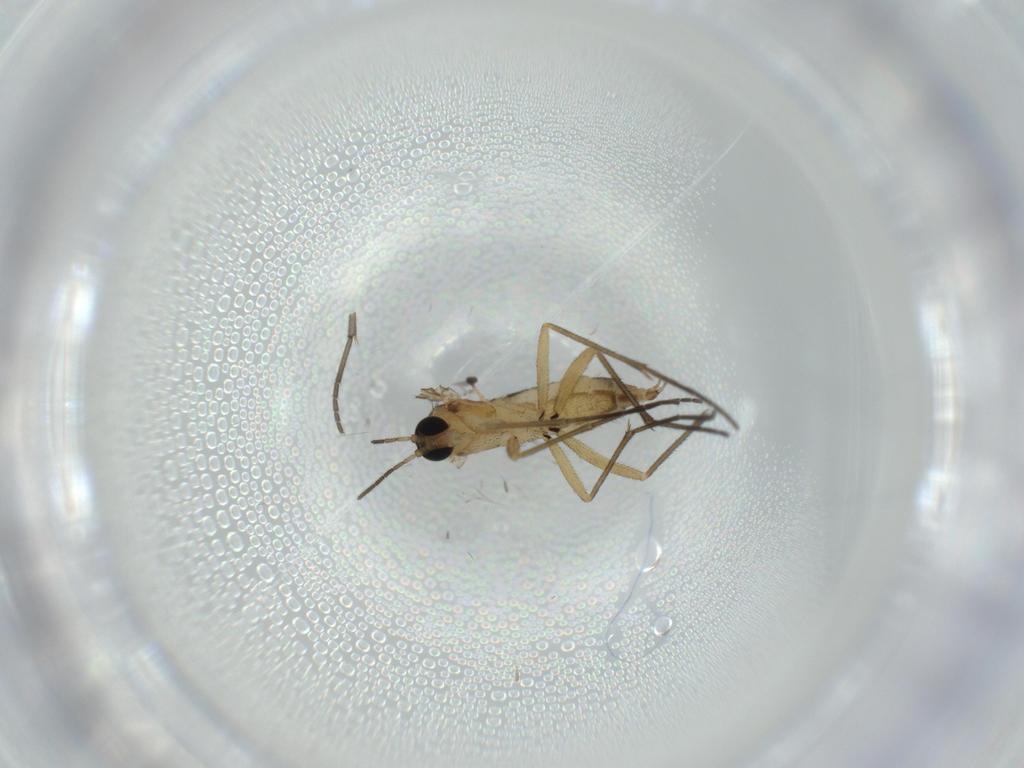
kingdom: Animalia
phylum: Arthropoda
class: Insecta
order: Diptera
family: Sciaridae
